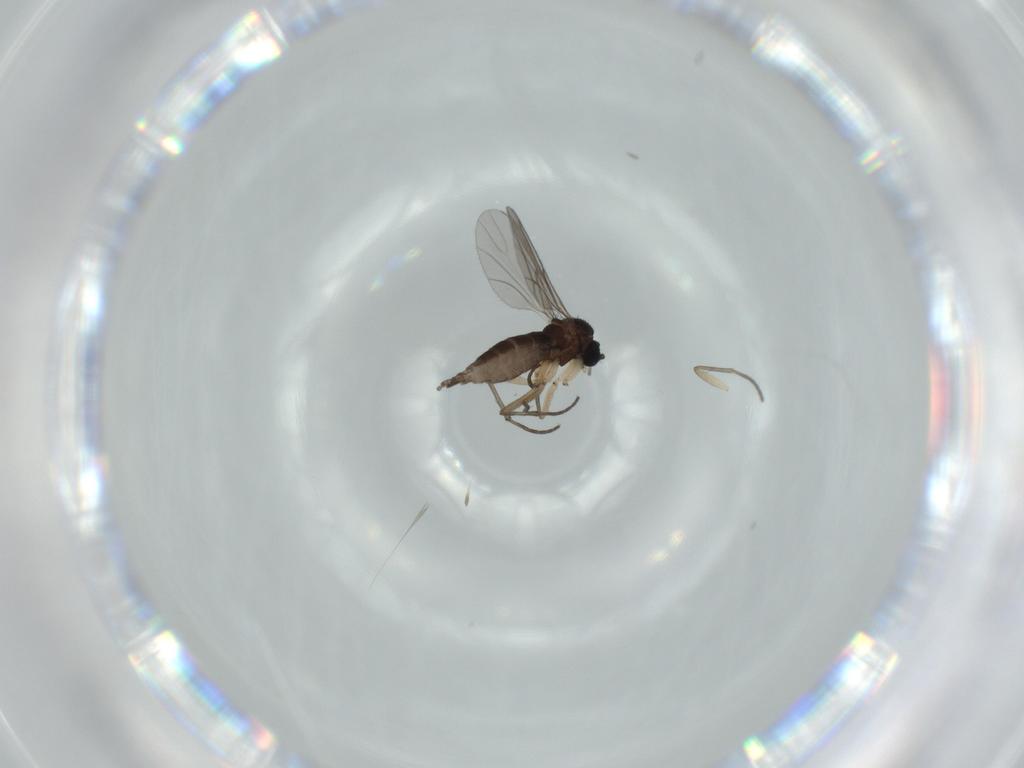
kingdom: Animalia
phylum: Arthropoda
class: Insecta
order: Diptera
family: Sciaridae
